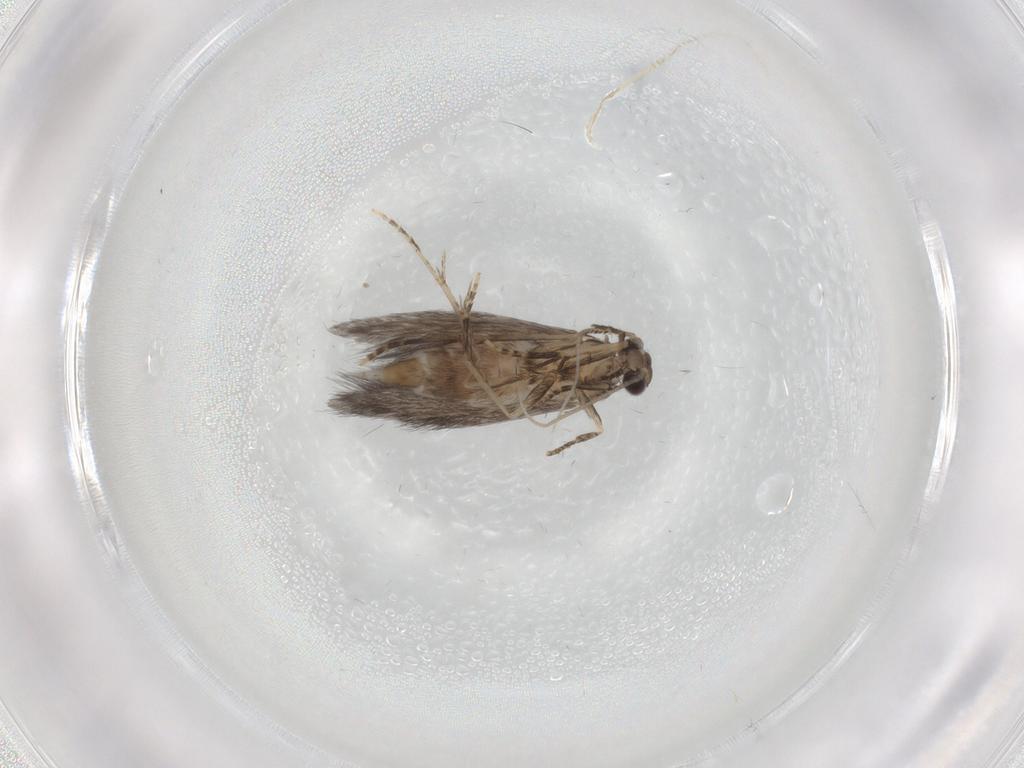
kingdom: Animalia
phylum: Arthropoda
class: Insecta
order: Trichoptera
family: Hydroptilidae
